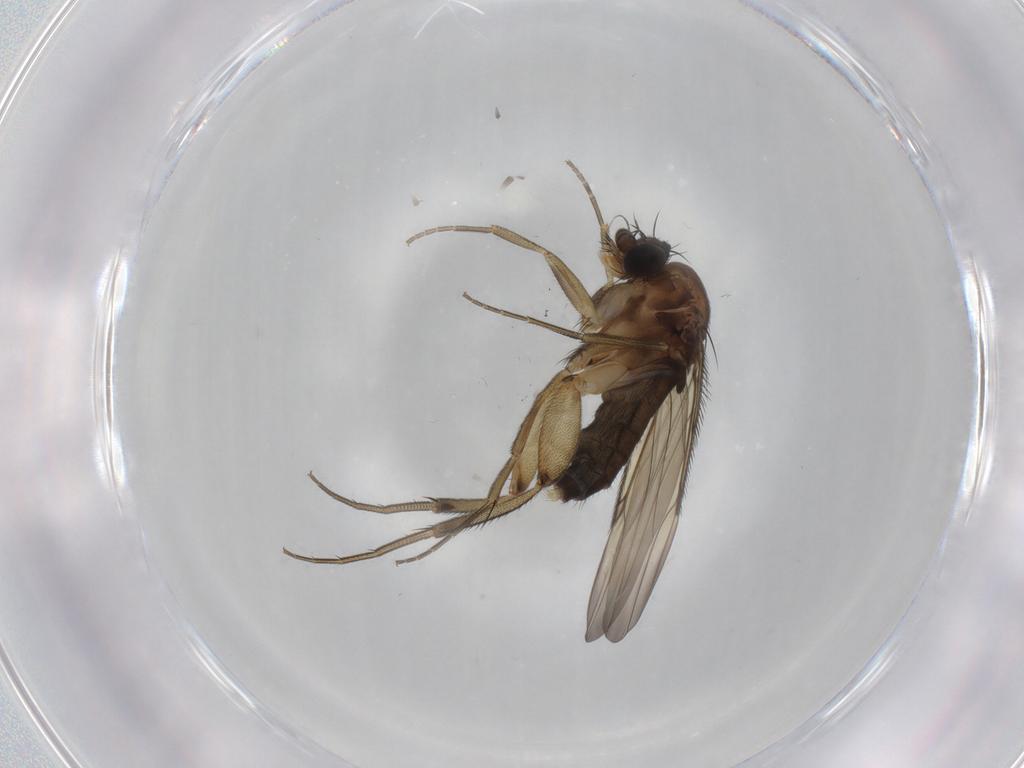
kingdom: Animalia
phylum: Arthropoda
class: Insecta
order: Diptera
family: Phoridae
